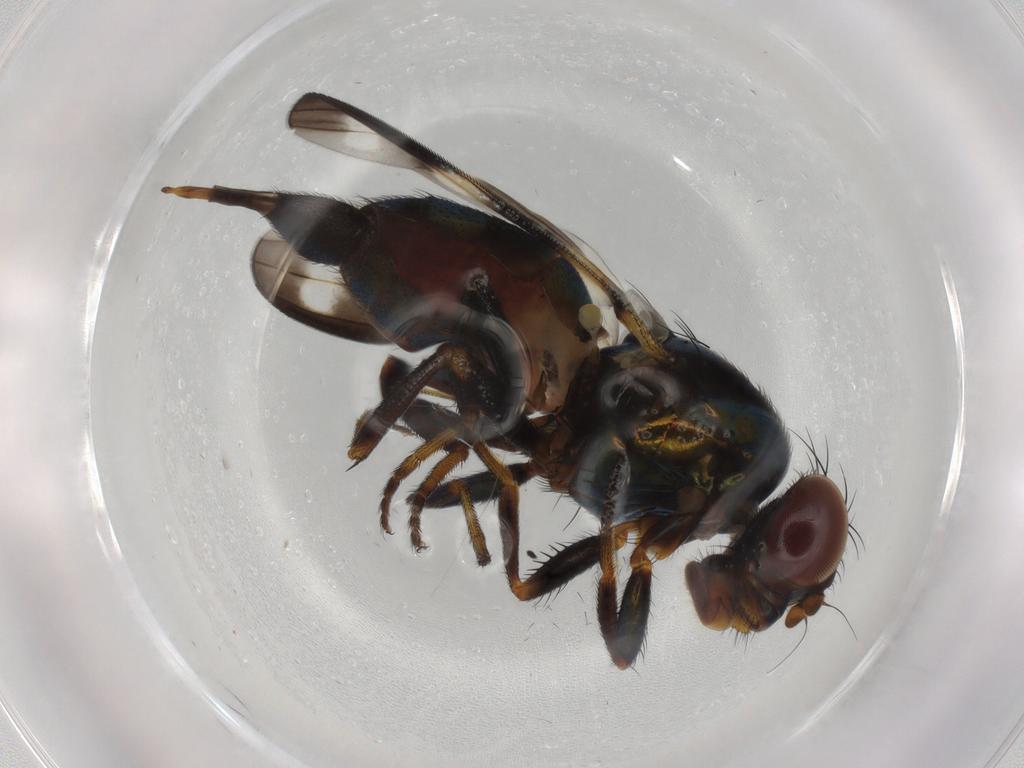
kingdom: Animalia
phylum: Arthropoda
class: Insecta
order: Diptera
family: Ulidiidae
